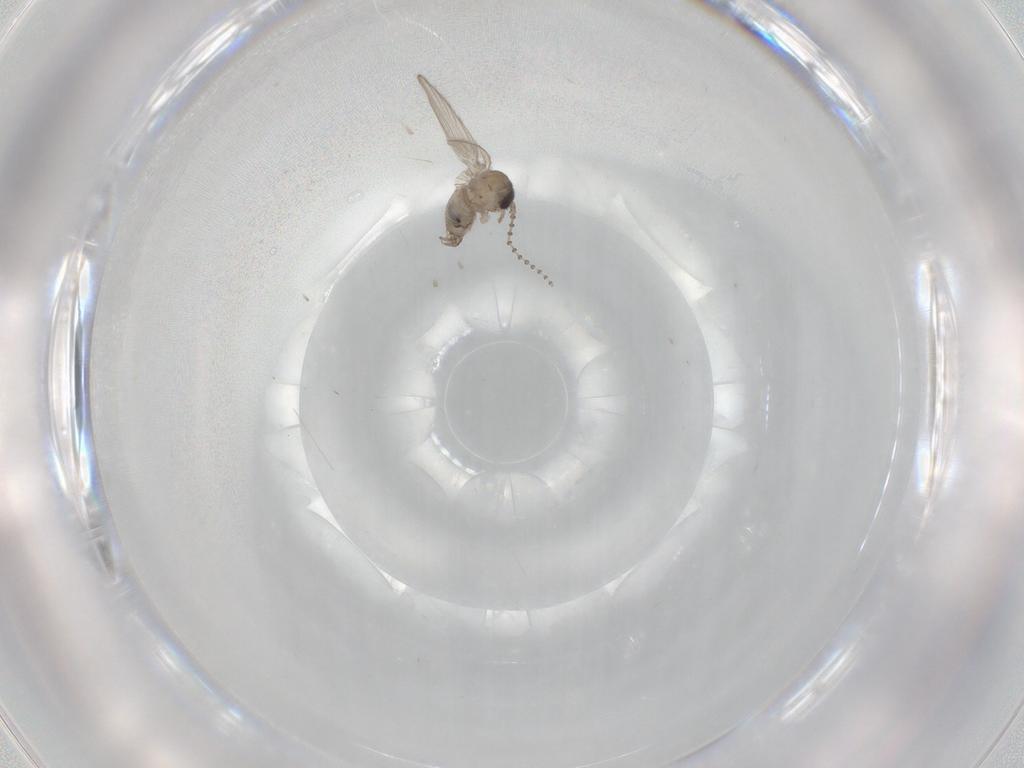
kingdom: Animalia
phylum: Arthropoda
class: Insecta
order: Diptera
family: Psychodidae
